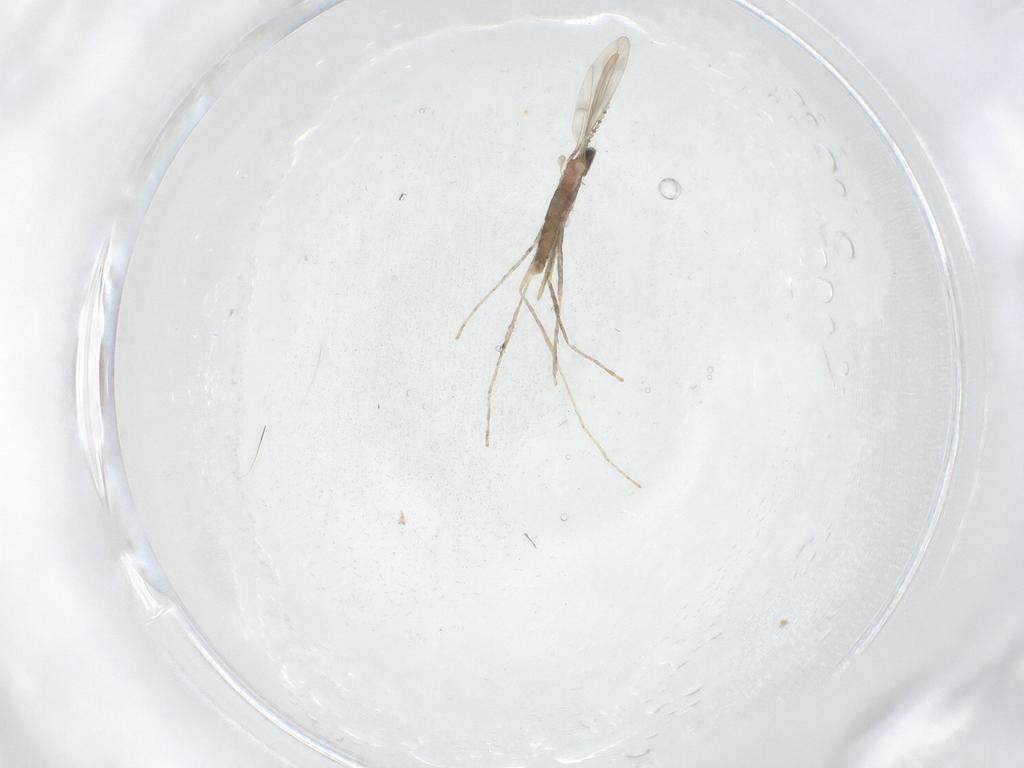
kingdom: Animalia
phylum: Arthropoda
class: Insecta
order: Diptera
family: Cecidomyiidae
